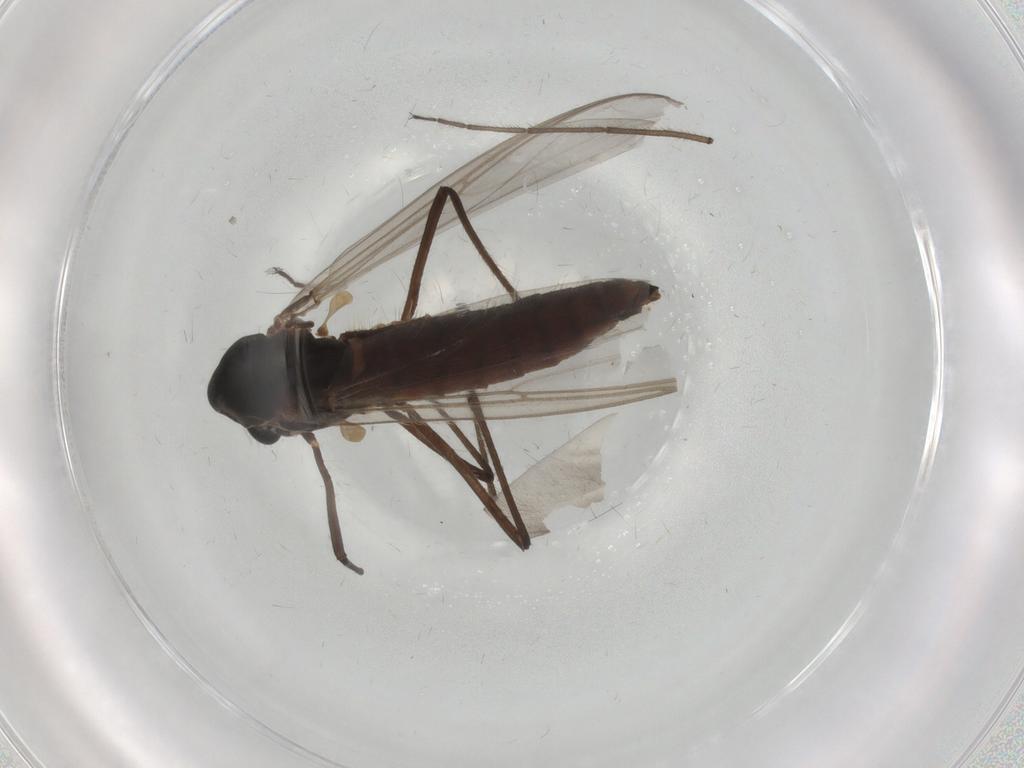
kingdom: Animalia
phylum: Arthropoda
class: Insecta
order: Diptera
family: Chironomidae
